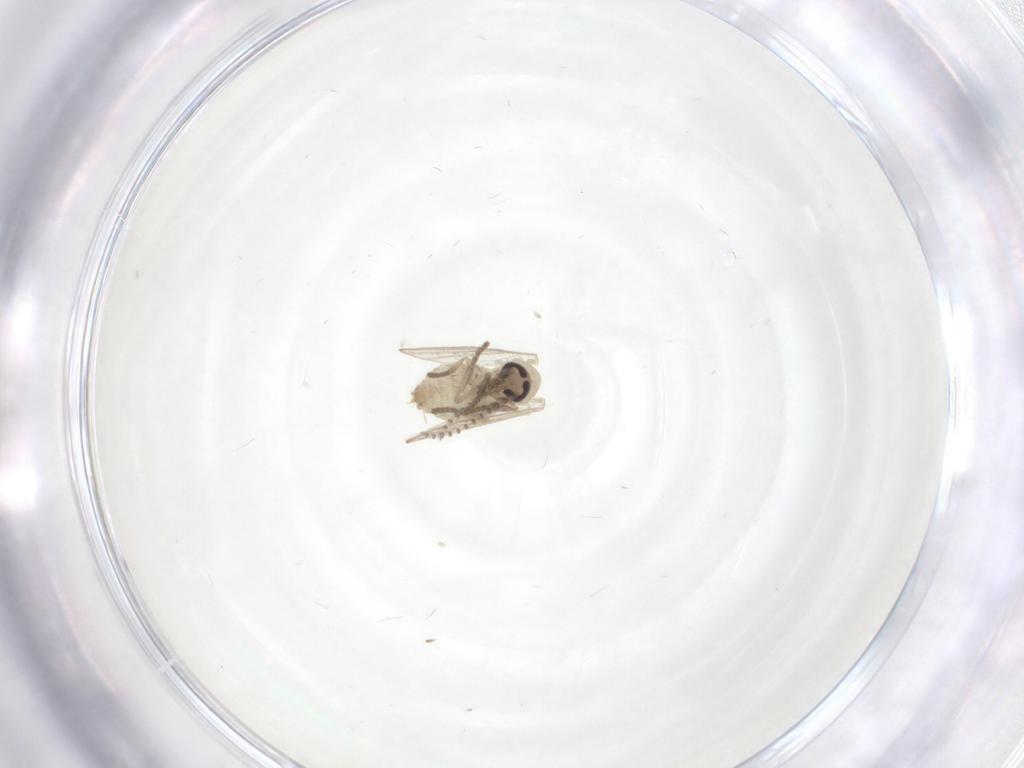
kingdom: Animalia
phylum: Arthropoda
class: Insecta
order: Diptera
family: Psychodidae
